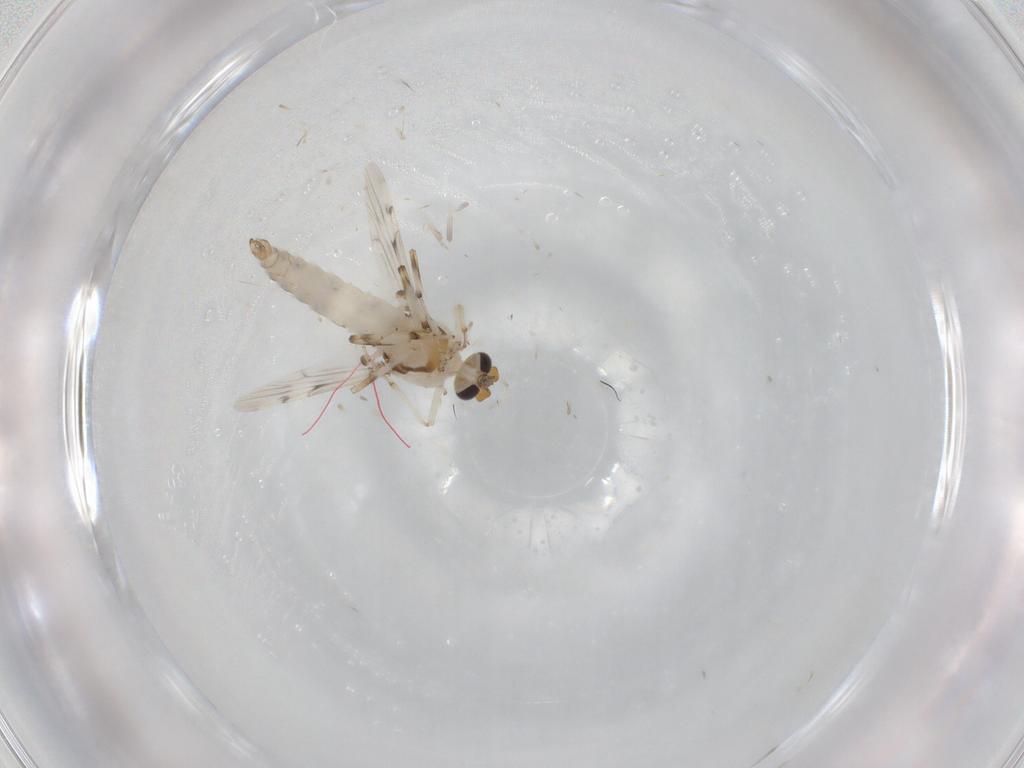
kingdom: Animalia
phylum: Arthropoda
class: Insecta
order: Diptera
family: Ceratopogonidae
